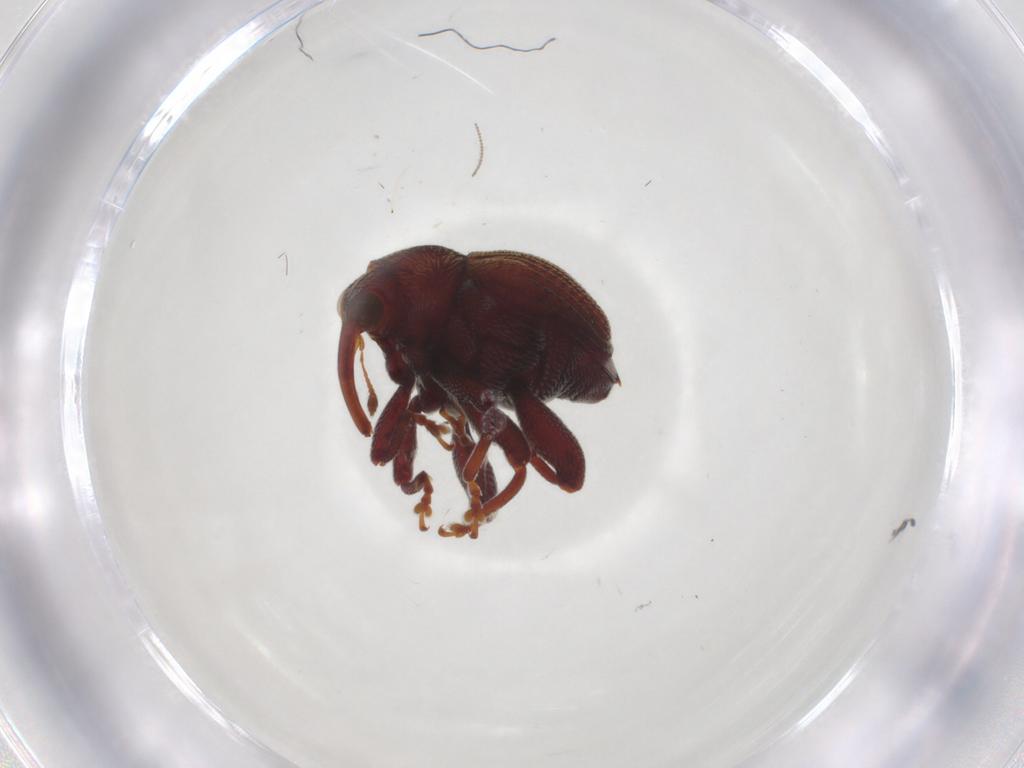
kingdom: Animalia
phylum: Arthropoda
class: Insecta
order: Coleoptera
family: Curculionidae
